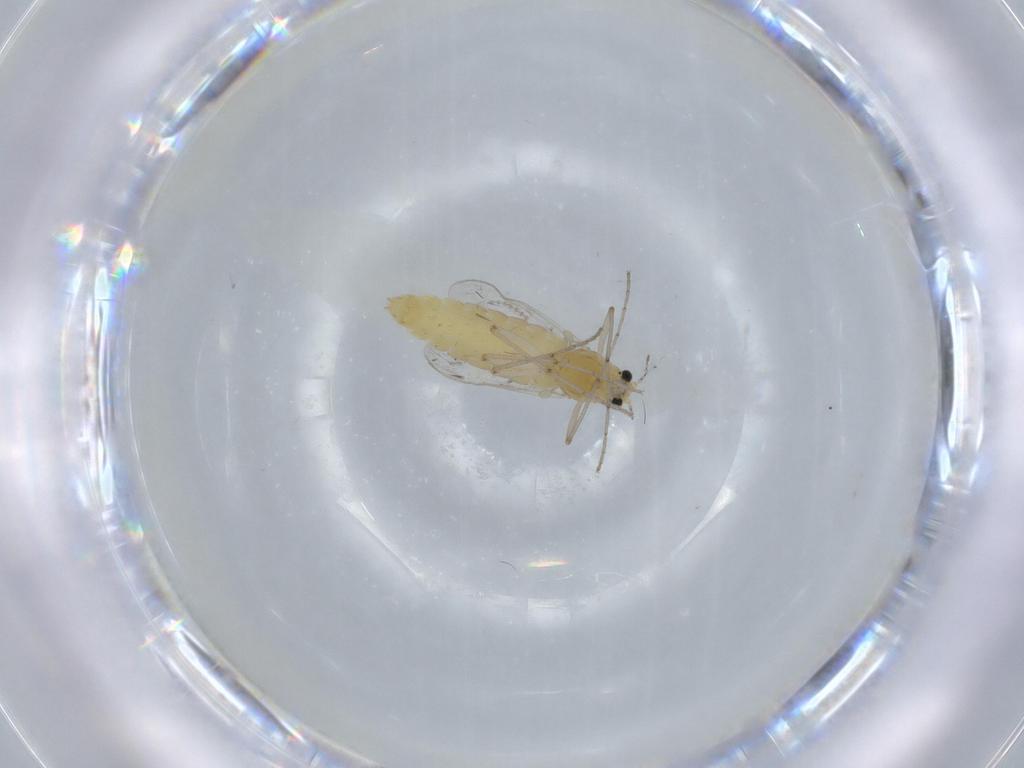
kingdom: Animalia
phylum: Arthropoda
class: Insecta
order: Diptera
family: Chironomidae
